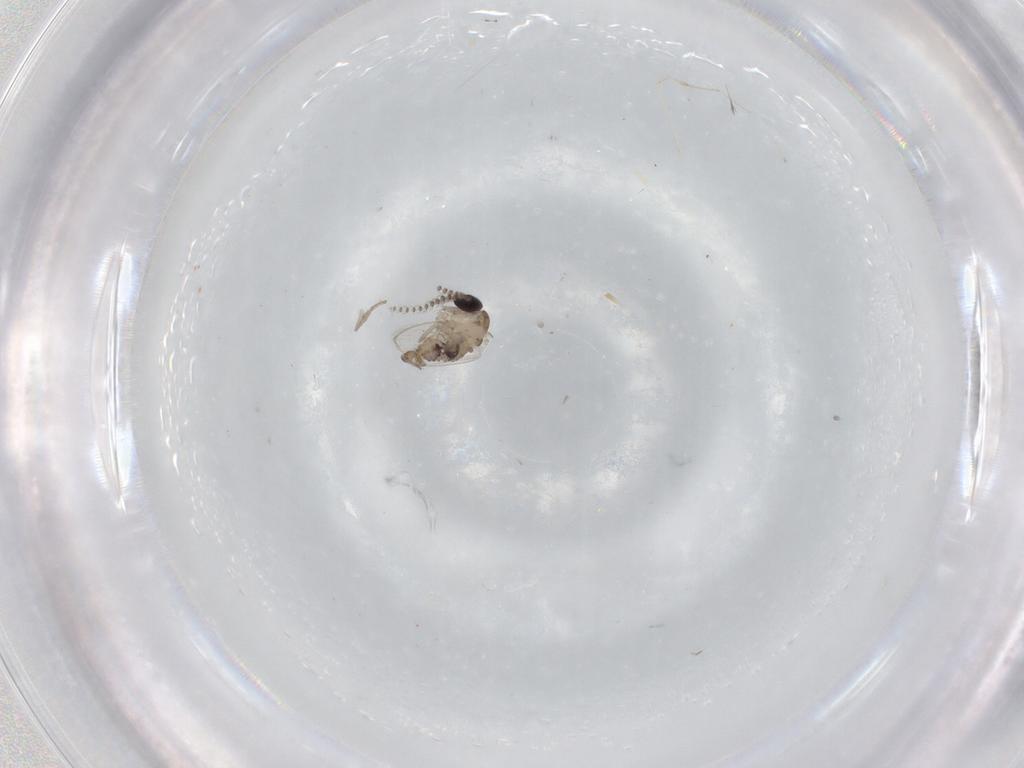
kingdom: Animalia
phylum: Arthropoda
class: Insecta
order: Diptera
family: Psychodidae
